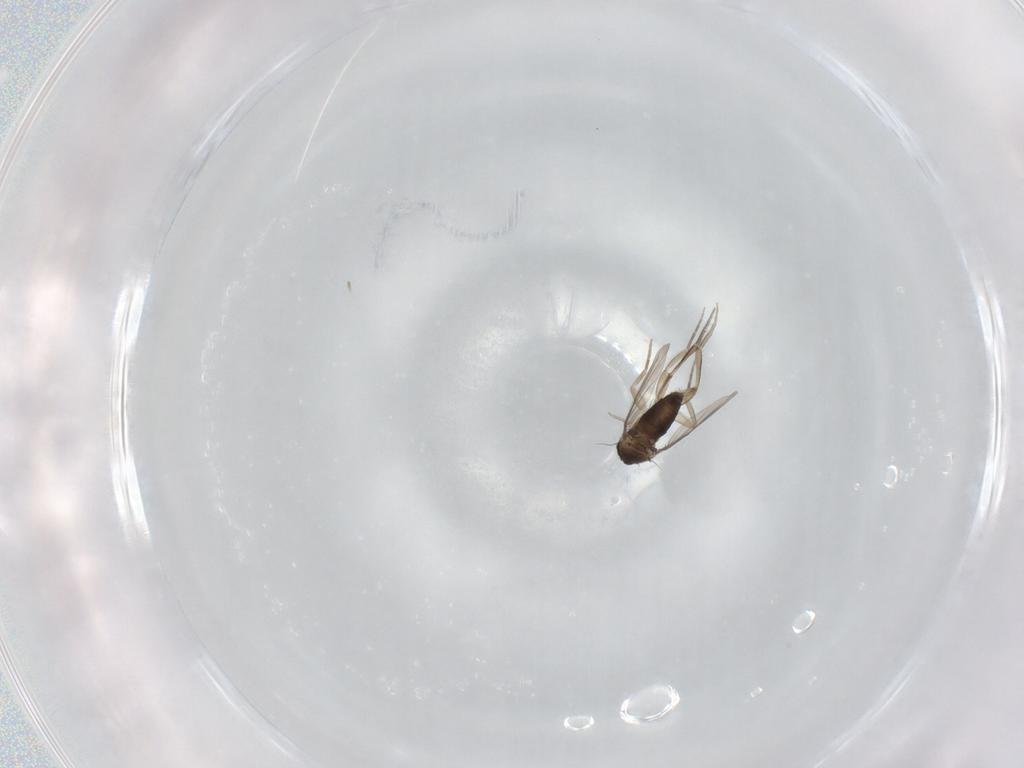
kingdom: Animalia
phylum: Arthropoda
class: Insecta
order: Diptera
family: Phoridae
